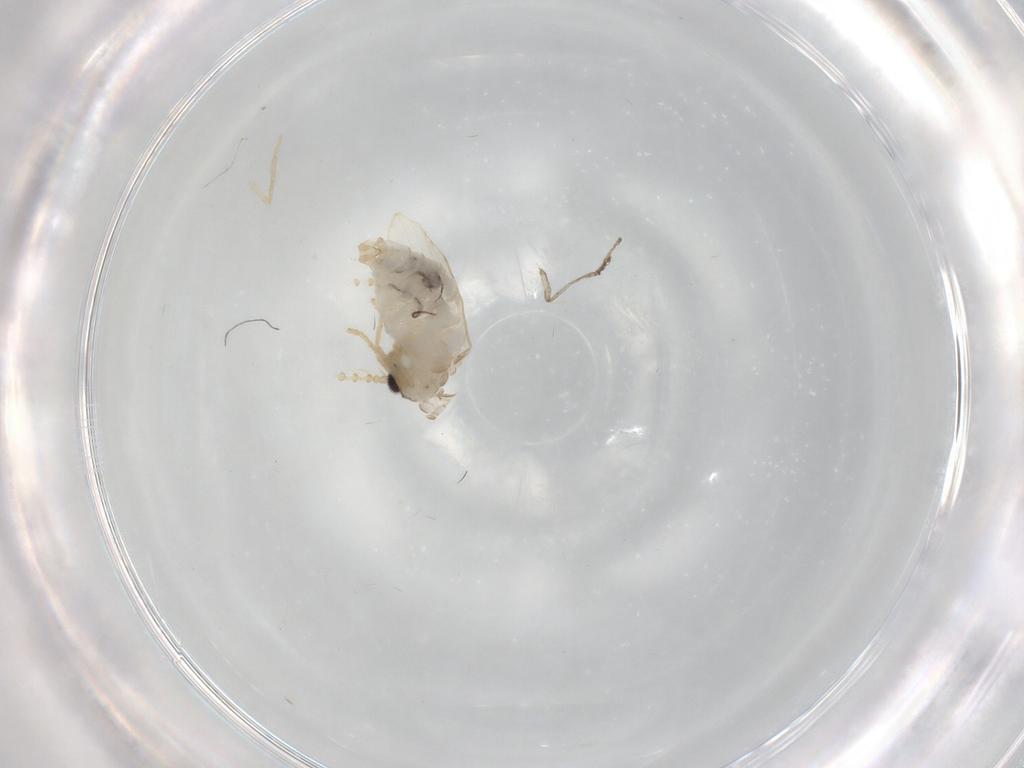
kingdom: Animalia
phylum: Arthropoda
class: Insecta
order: Diptera
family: Psychodidae
